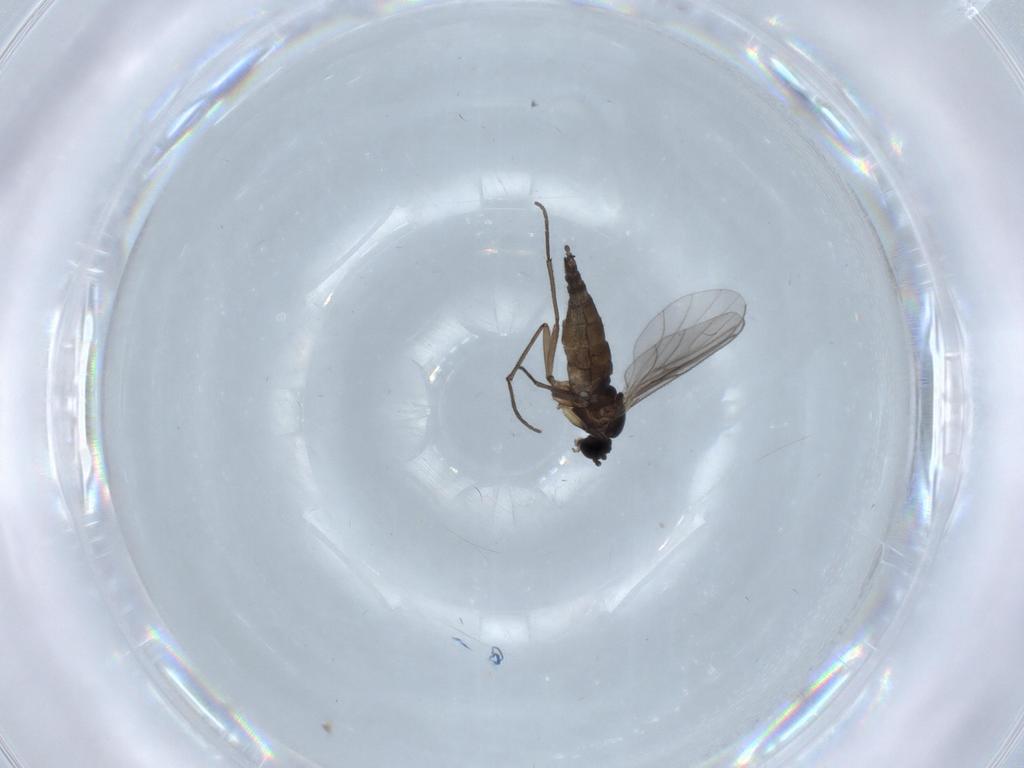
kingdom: Animalia
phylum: Arthropoda
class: Insecta
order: Diptera
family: Sciaridae
